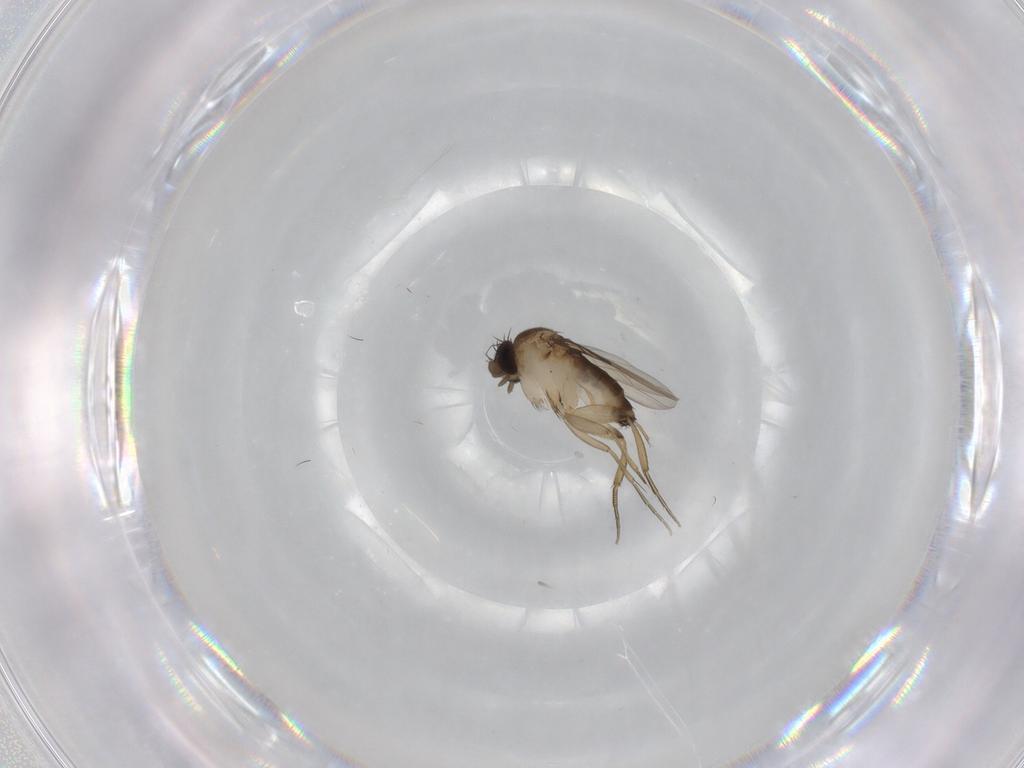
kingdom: Animalia
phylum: Arthropoda
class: Insecta
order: Diptera
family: Phoridae
